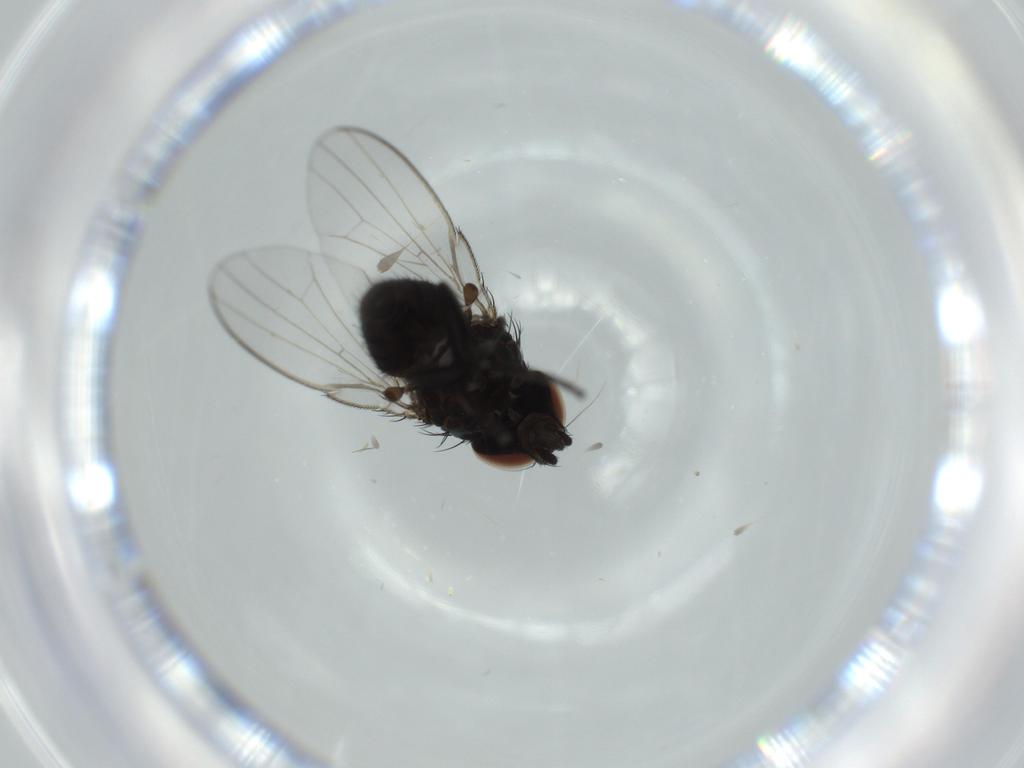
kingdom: Animalia
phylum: Arthropoda
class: Insecta
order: Diptera
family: Milichiidae
